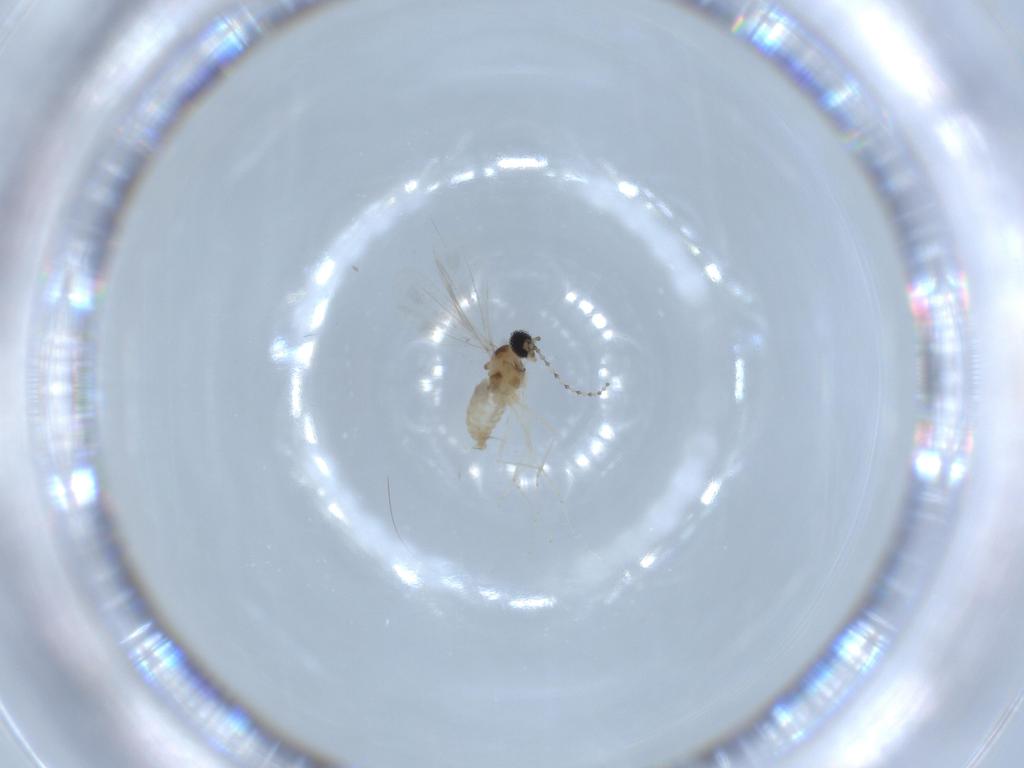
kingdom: Animalia
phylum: Arthropoda
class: Insecta
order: Diptera
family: Cecidomyiidae
